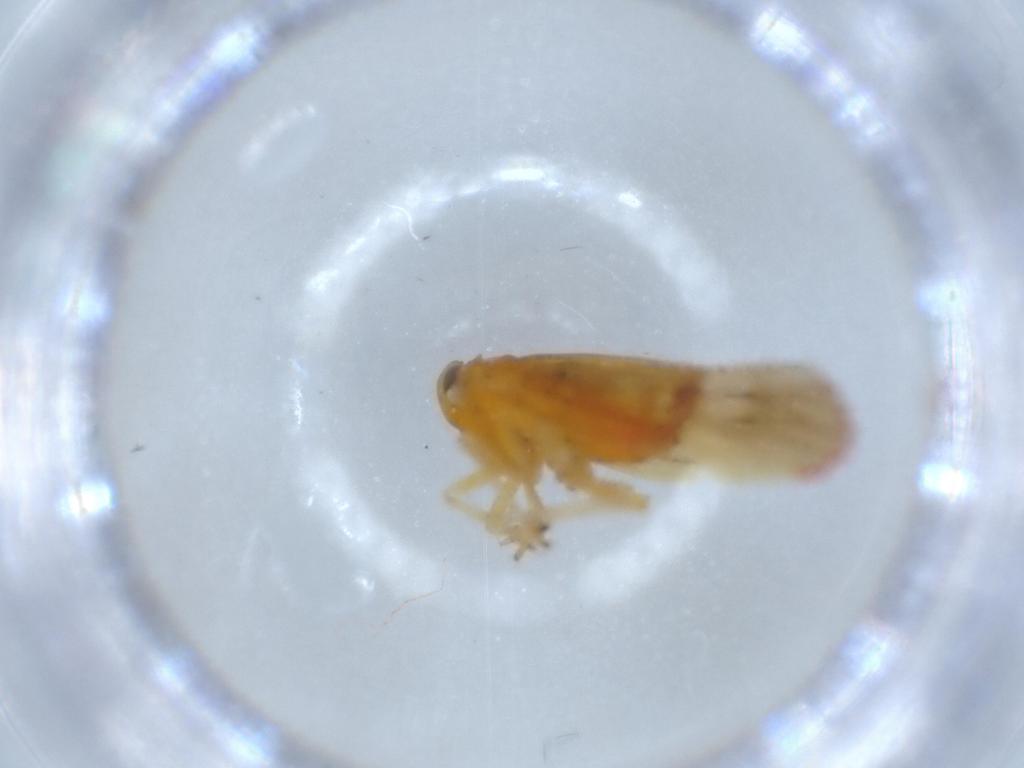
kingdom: Animalia
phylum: Arthropoda
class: Insecta
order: Hemiptera
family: Derbidae
